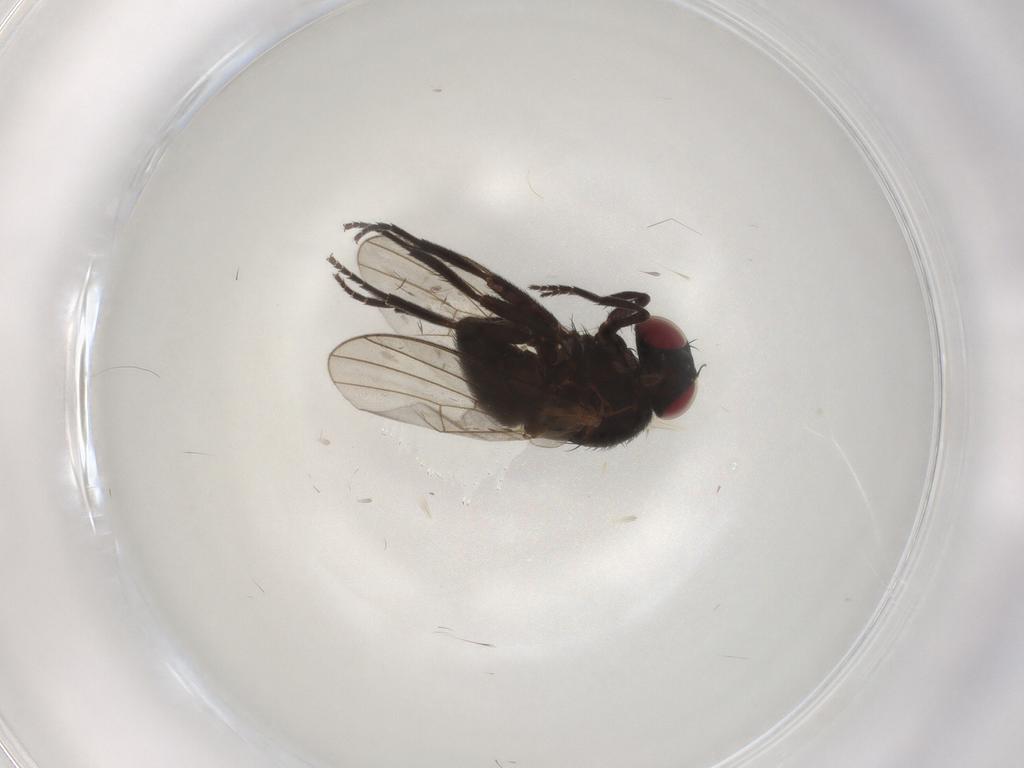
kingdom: Animalia
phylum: Arthropoda
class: Insecta
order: Diptera
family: Agromyzidae
